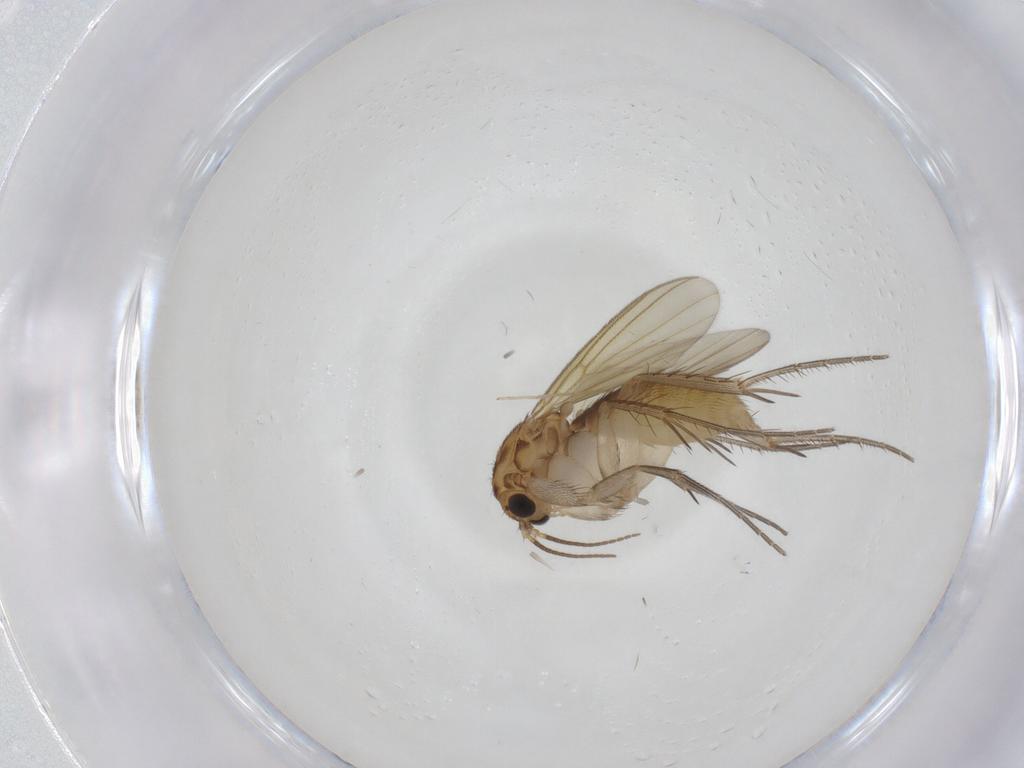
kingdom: Animalia
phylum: Arthropoda
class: Insecta
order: Diptera
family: Mycetophilidae
